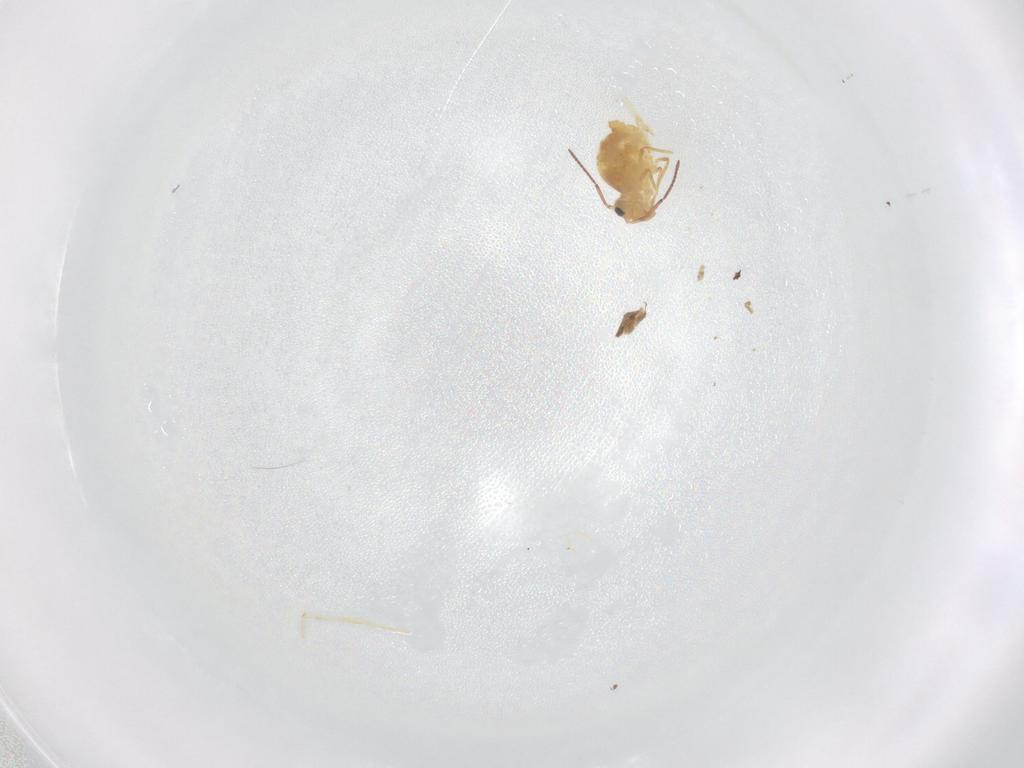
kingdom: Animalia
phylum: Arthropoda
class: Collembola
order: Symphypleona
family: Bourletiellidae
